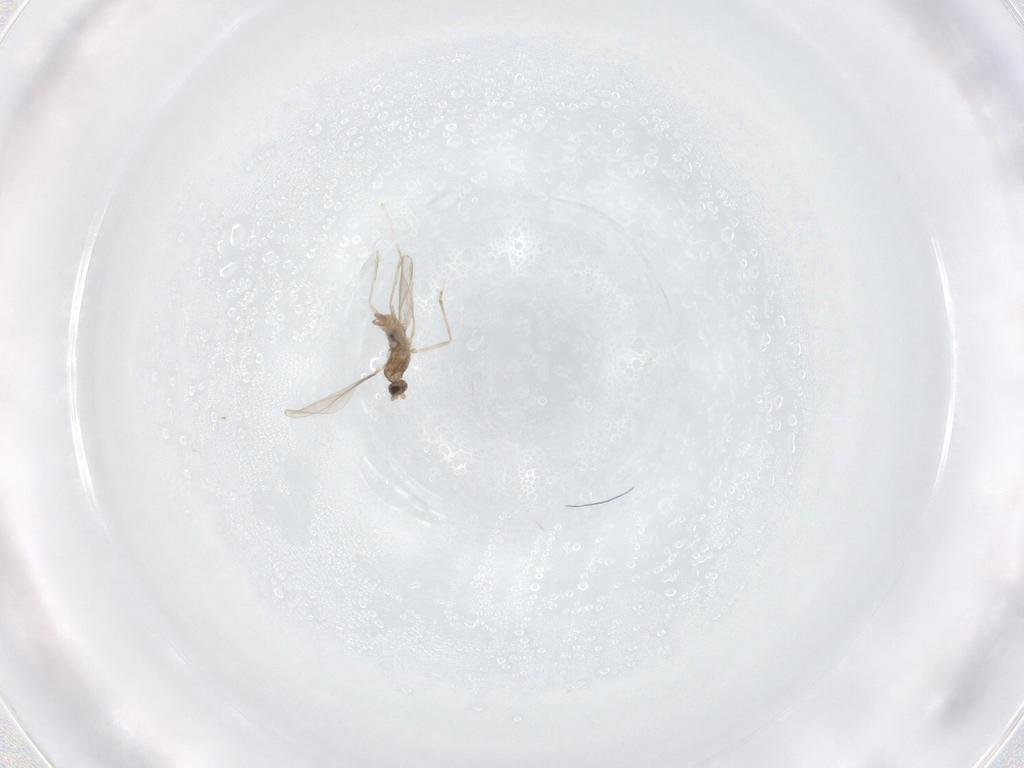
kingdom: Animalia
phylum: Arthropoda
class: Insecta
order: Diptera
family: Cecidomyiidae
